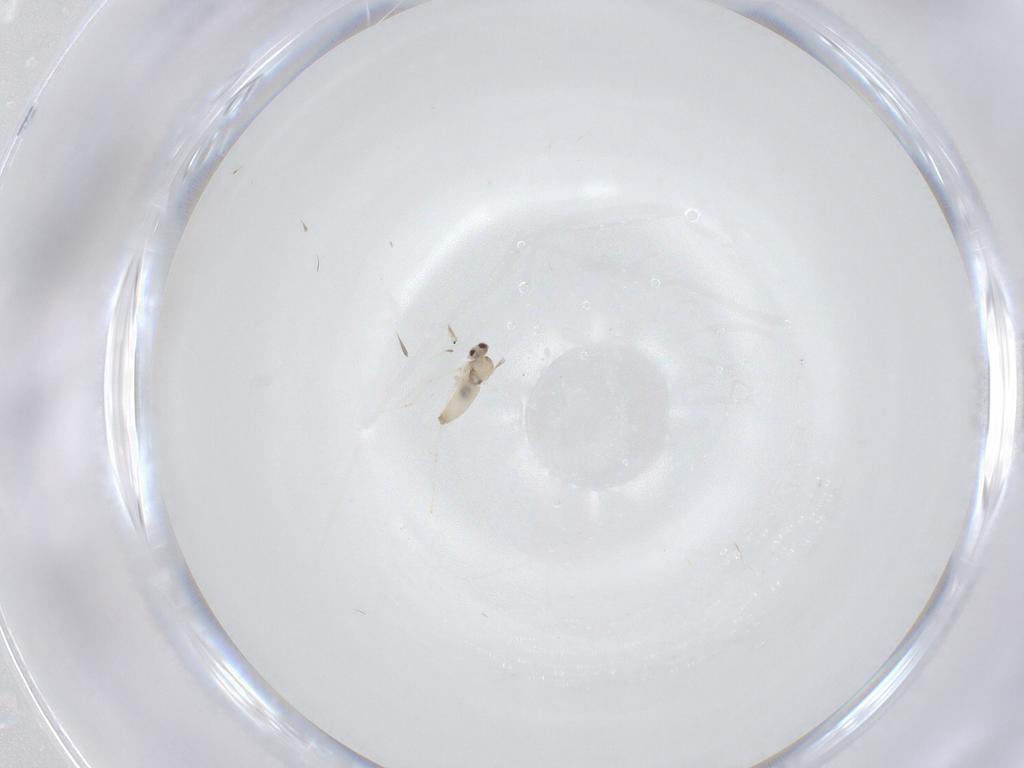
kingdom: Animalia
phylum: Arthropoda
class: Insecta
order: Diptera
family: Cecidomyiidae
